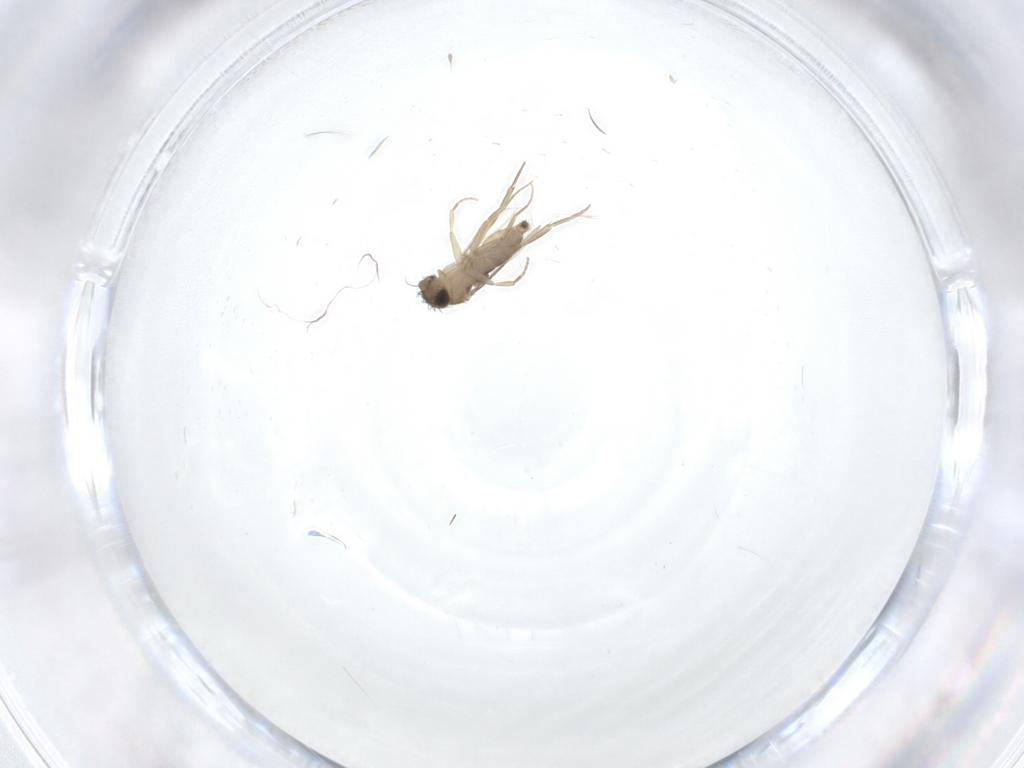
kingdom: Animalia
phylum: Arthropoda
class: Insecta
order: Diptera
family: Phoridae
